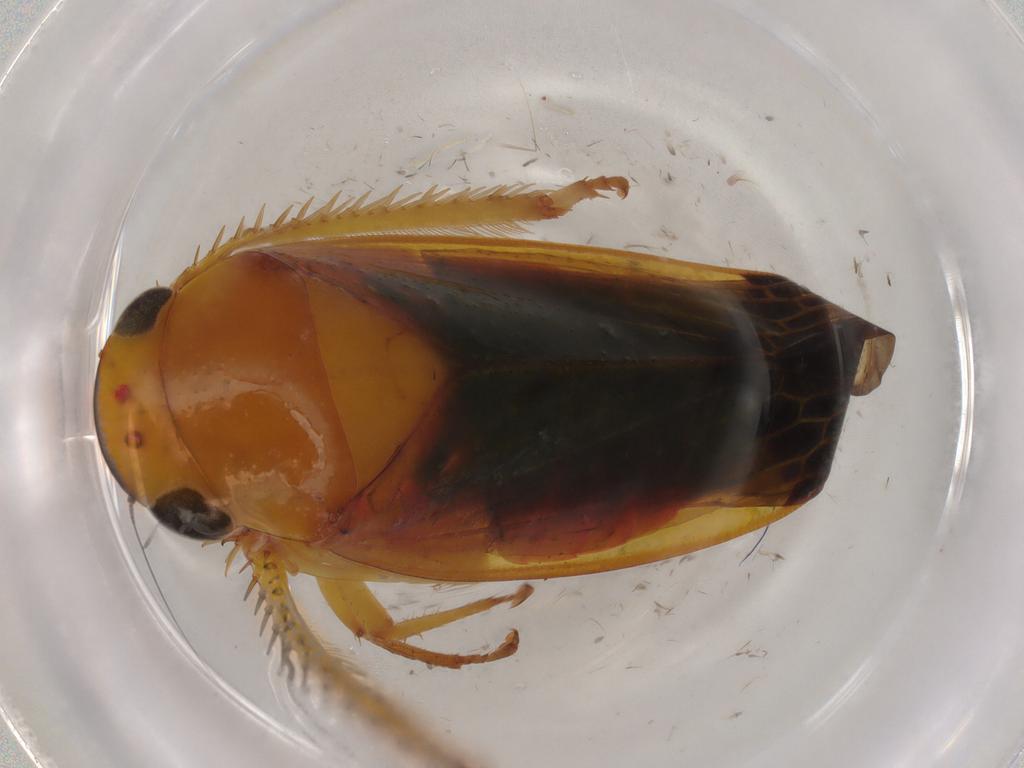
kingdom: Animalia
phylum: Arthropoda
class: Insecta
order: Hemiptera
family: Cicadellidae
